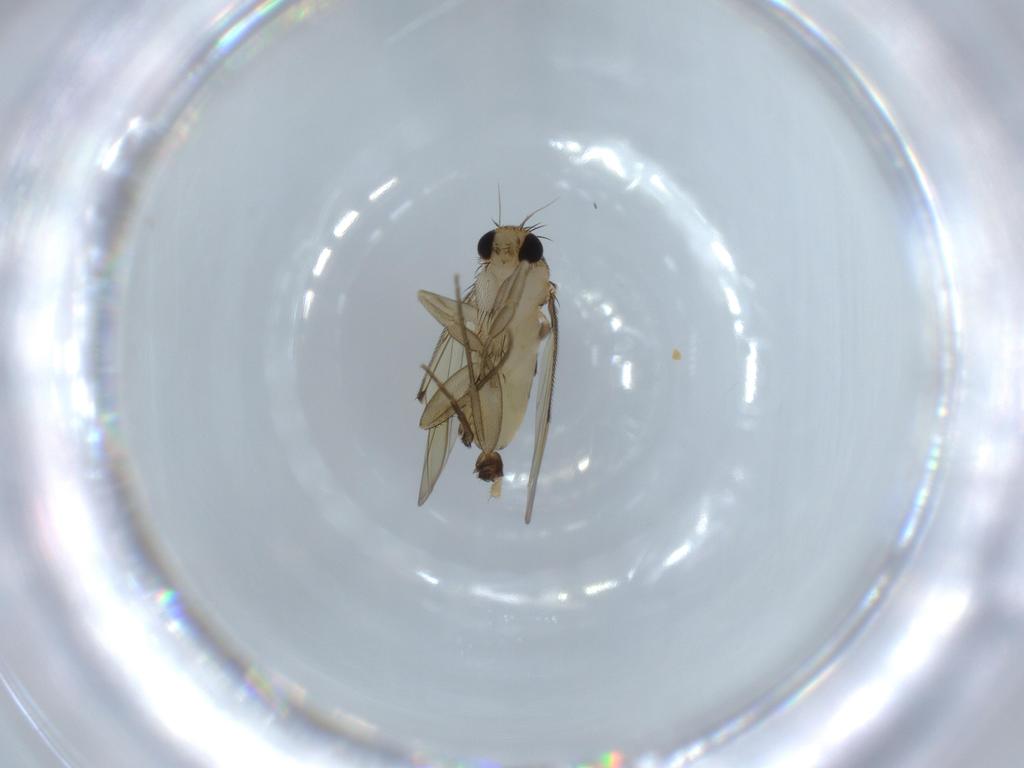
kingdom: Animalia
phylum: Arthropoda
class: Insecta
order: Diptera
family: Phoridae
